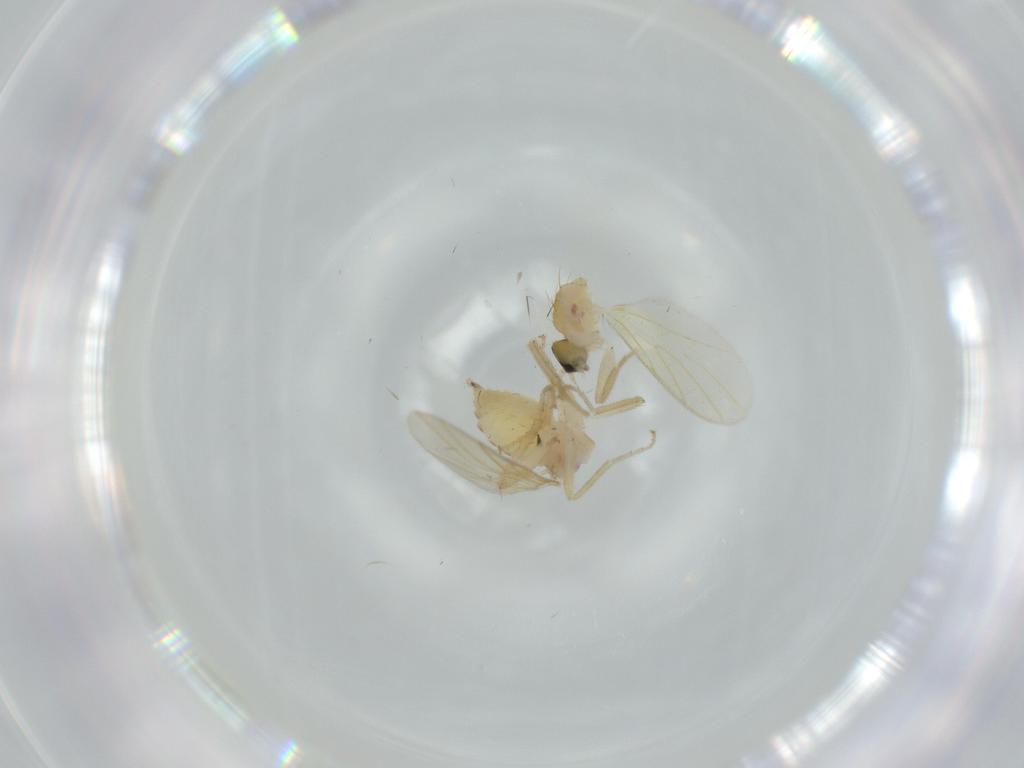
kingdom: Animalia
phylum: Arthropoda
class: Insecta
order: Diptera
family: Hybotidae
